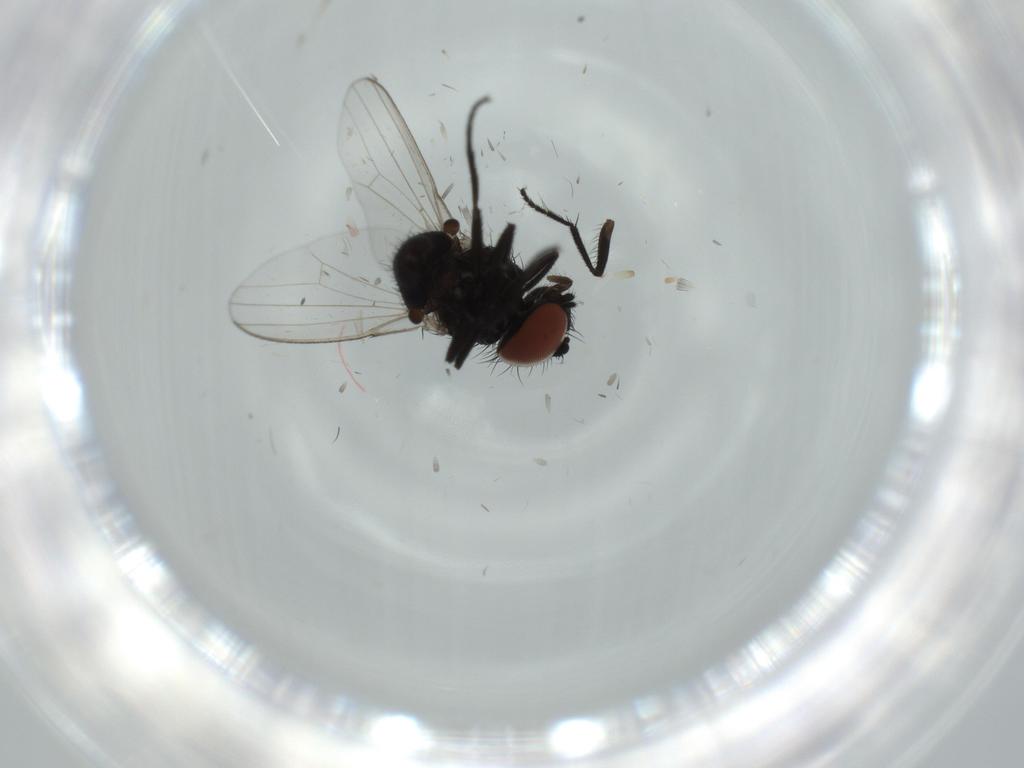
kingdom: Animalia
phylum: Arthropoda
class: Insecta
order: Diptera
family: Milichiidae
